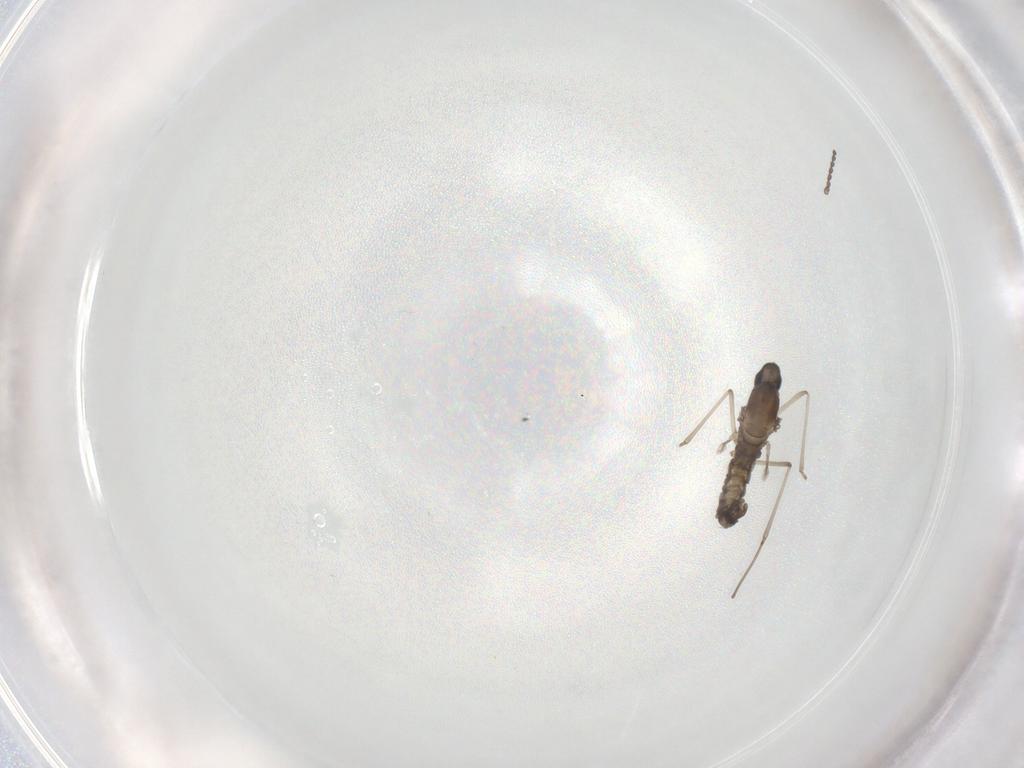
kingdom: Animalia
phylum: Arthropoda
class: Insecta
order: Diptera
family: Cecidomyiidae
